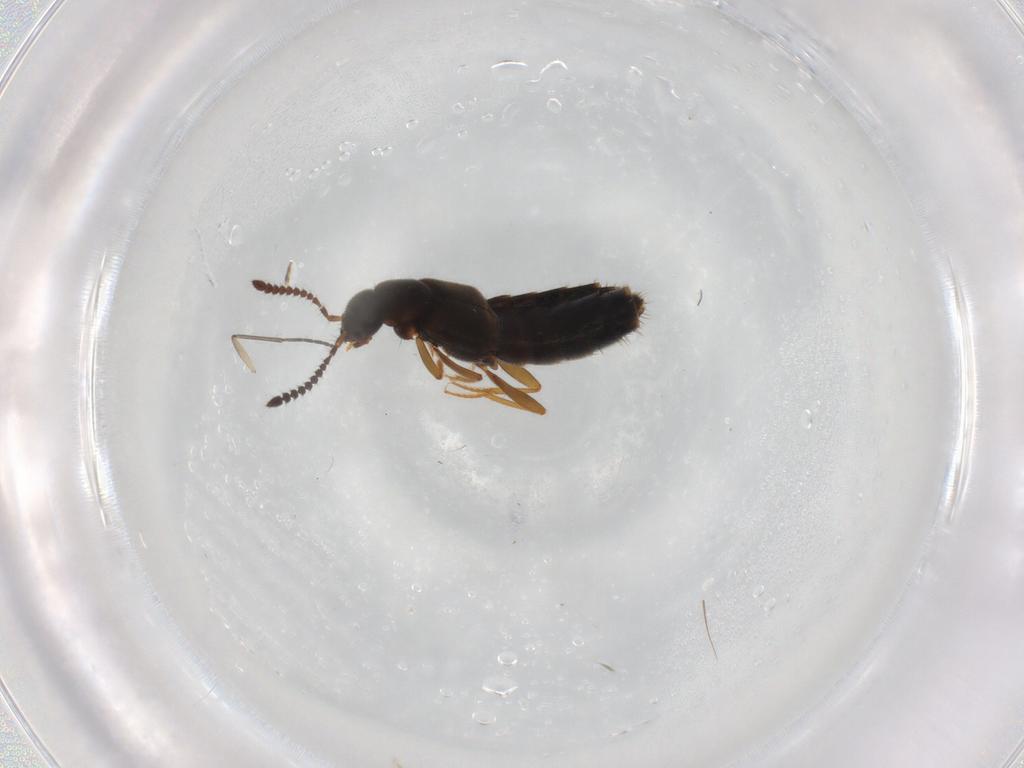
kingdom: Animalia
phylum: Arthropoda
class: Insecta
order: Coleoptera
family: Staphylinidae
